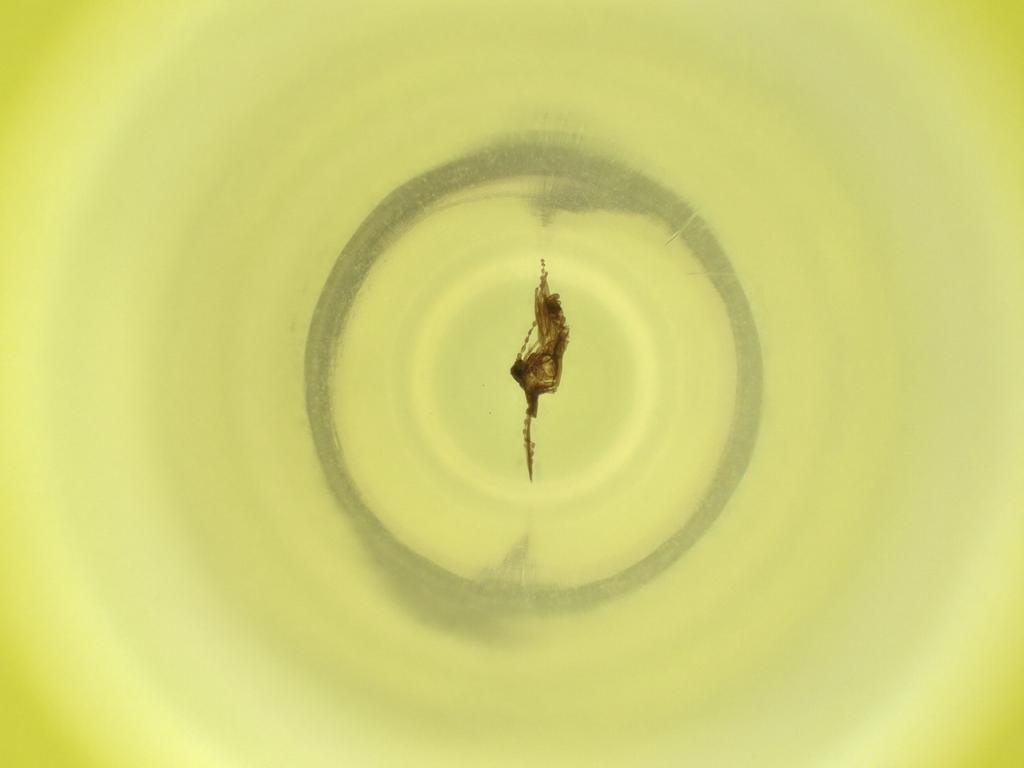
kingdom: Animalia
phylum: Arthropoda
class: Insecta
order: Diptera
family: Cecidomyiidae
